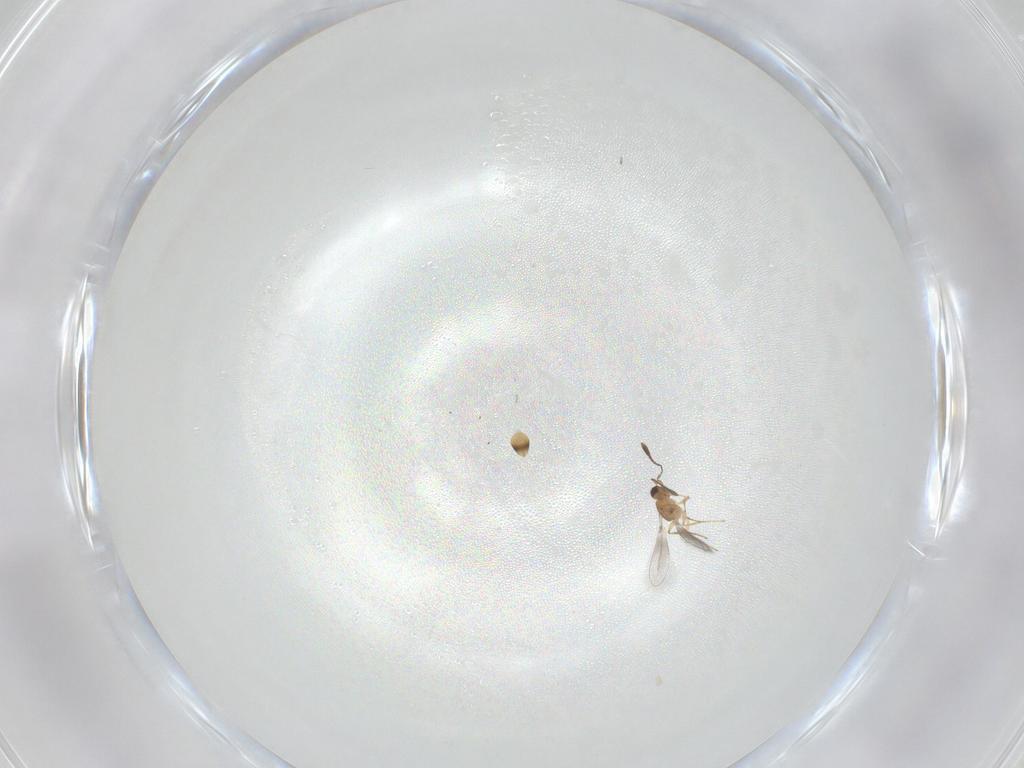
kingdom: Animalia
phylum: Arthropoda
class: Insecta
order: Hymenoptera
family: Mymaridae
